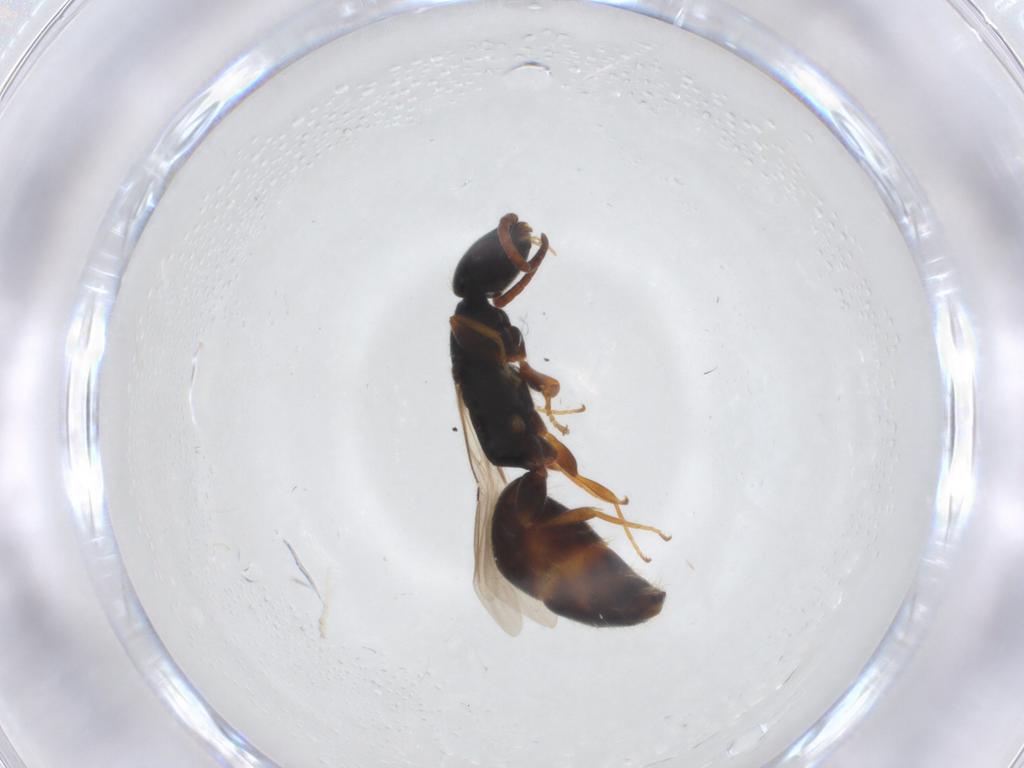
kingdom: Animalia
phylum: Arthropoda
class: Insecta
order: Hymenoptera
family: Bethylidae
